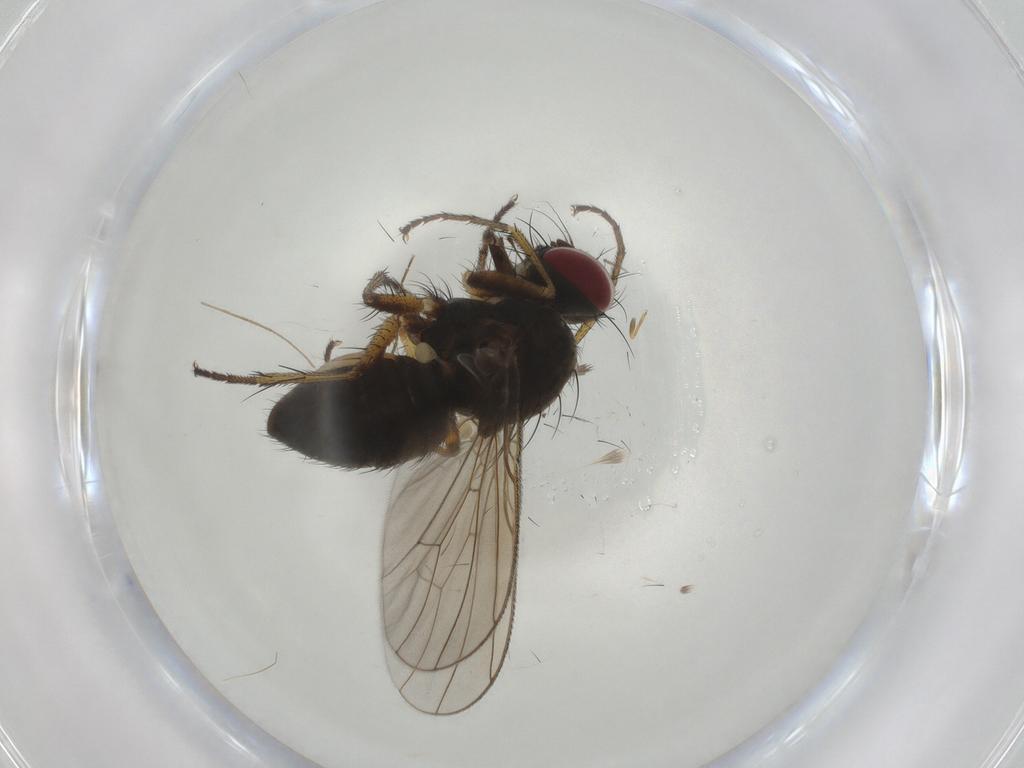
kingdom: Animalia
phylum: Arthropoda
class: Insecta
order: Diptera
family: Muscidae
